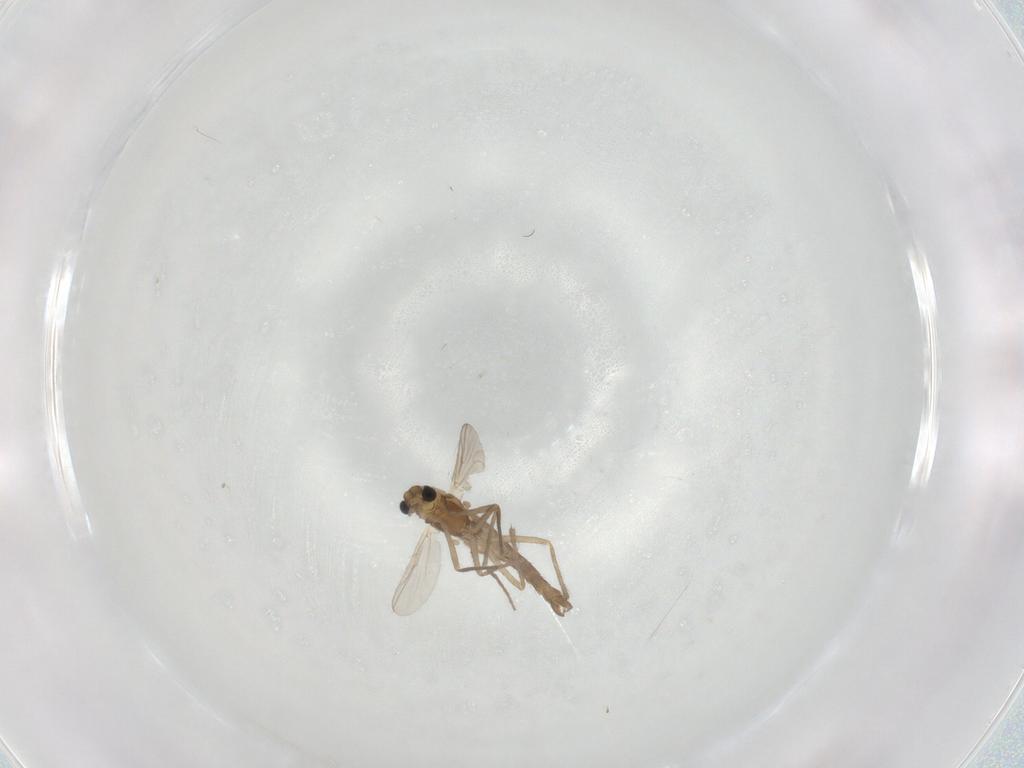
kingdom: Animalia
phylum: Arthropoda
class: Insecta
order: Diptera
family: Chironomidae
